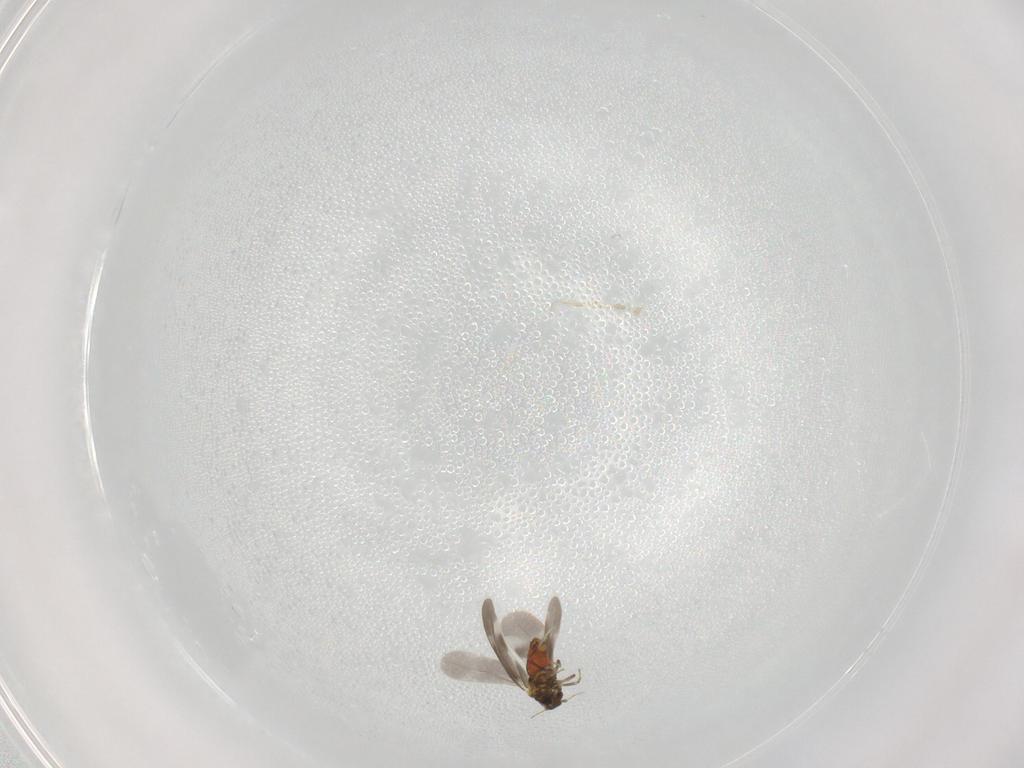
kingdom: Animalia
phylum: Arthropoda
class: Insecta
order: Hemiptera
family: Aleyrodidae
